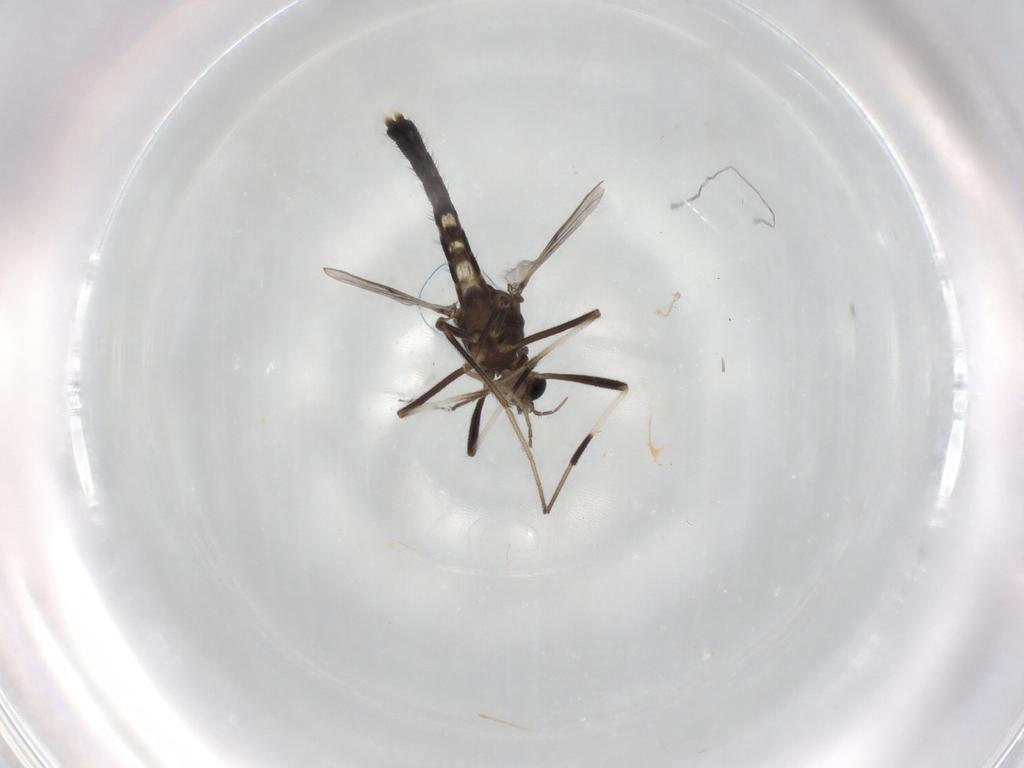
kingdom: Animalia
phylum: Arthropoda
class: Insecta
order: Diptera
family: Chironomidae
